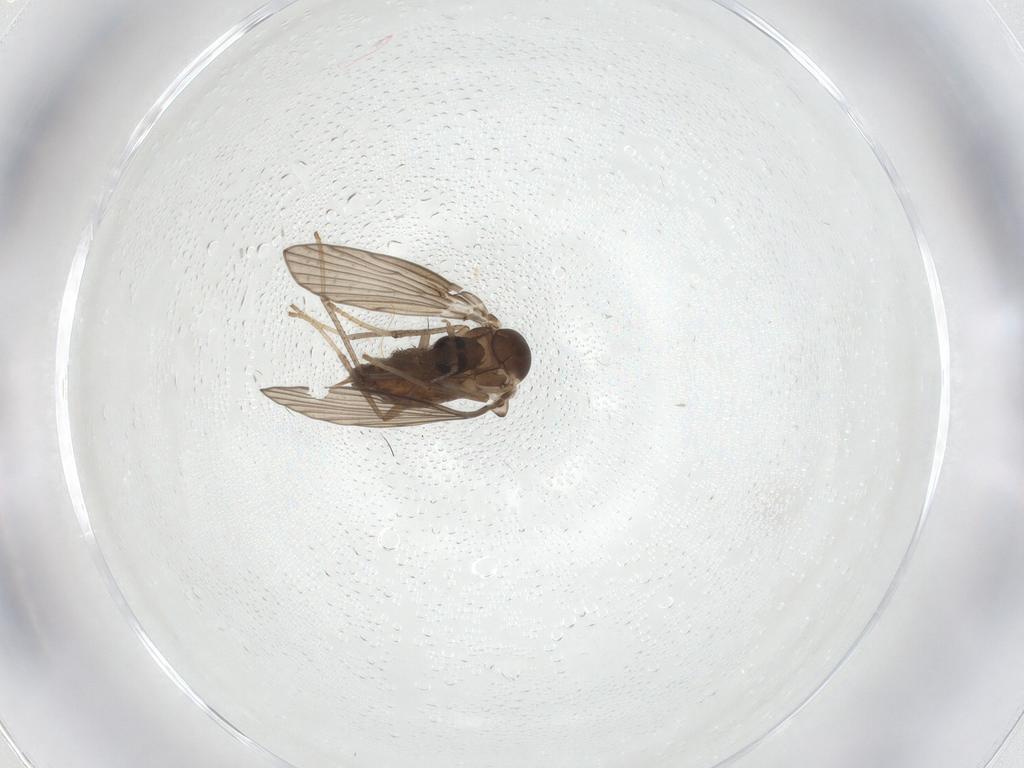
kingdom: Animalia
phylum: Arthropoda
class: Insecta
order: Diptera
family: Psychodidae
